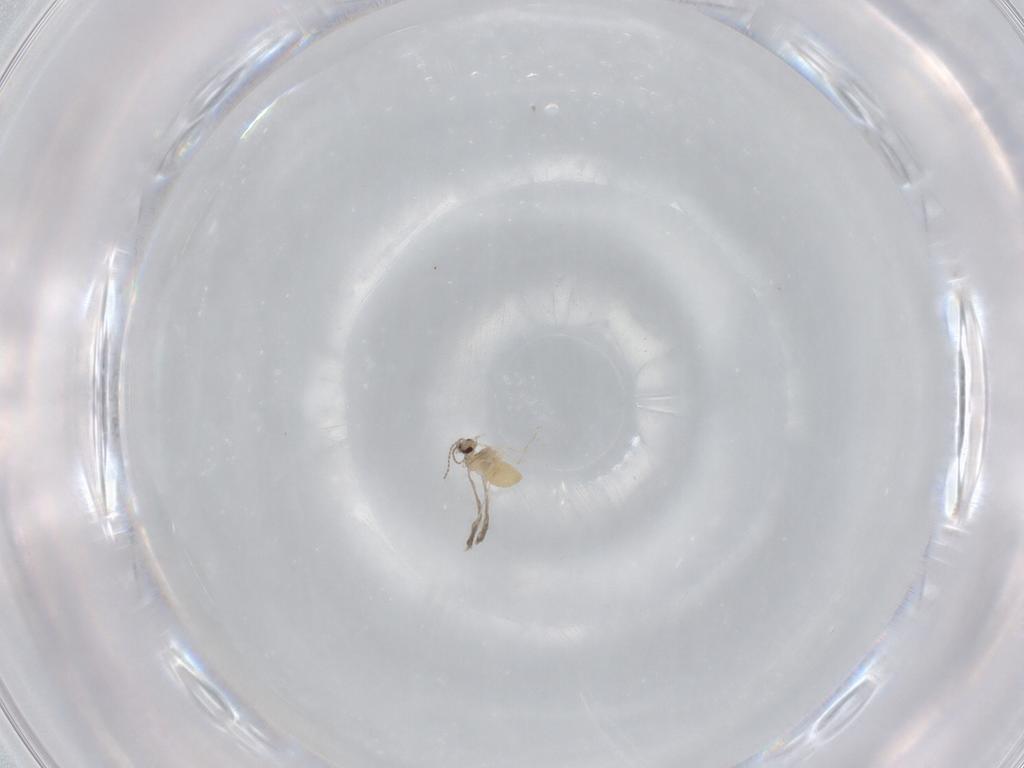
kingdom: Animalia
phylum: Arthropoda
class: Insecta
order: Diptera
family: Cecidomyiidae
